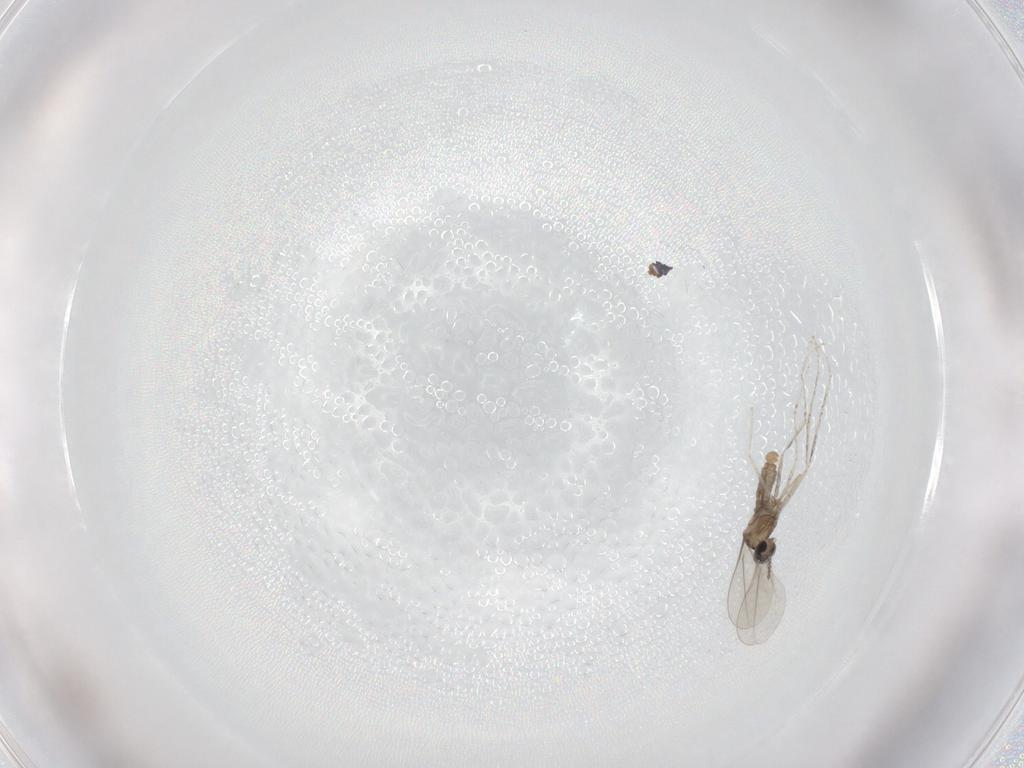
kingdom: Animalia
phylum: Arthropoda
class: Insecta
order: Diptera
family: Cecidomyiidae
